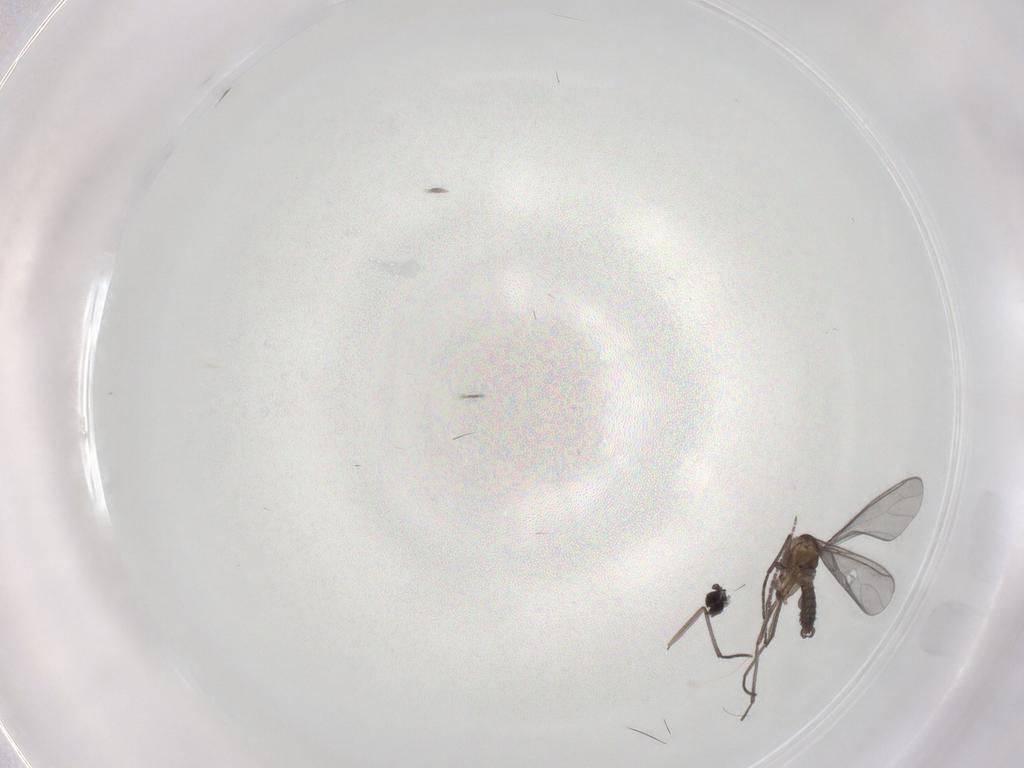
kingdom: Animalia
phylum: Arthropoda
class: Insecta
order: Diptera
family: Sciaridae
